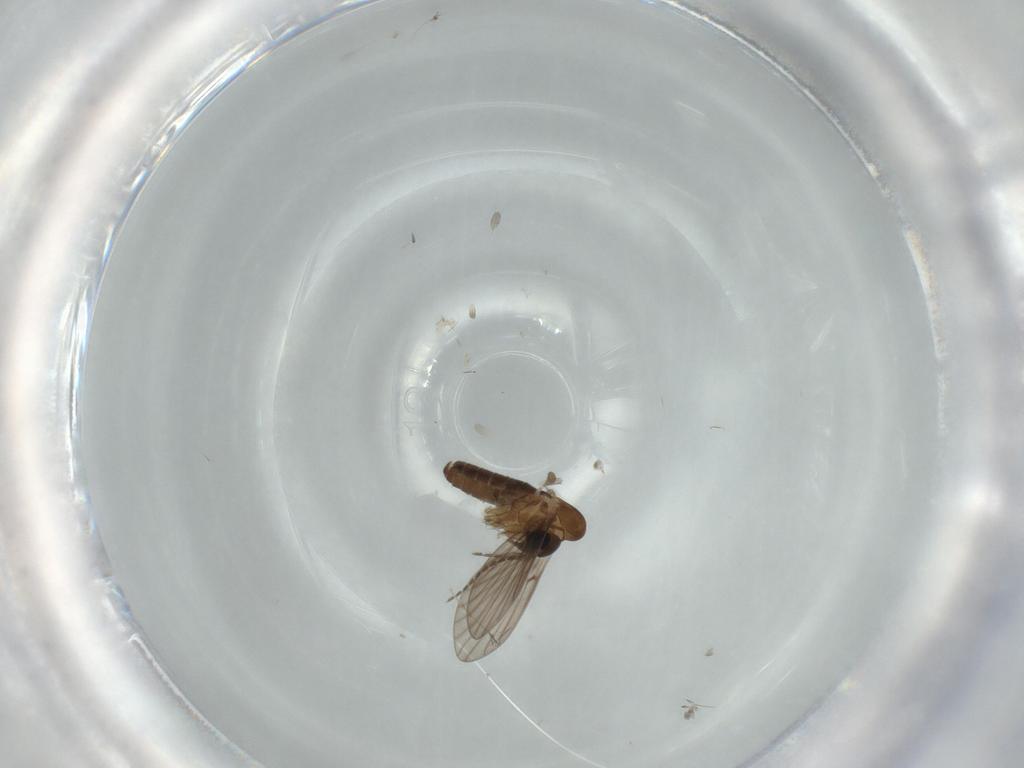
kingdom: Animalia
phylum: Arthropoda
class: Insecta
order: Diptera
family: Psychodidae
